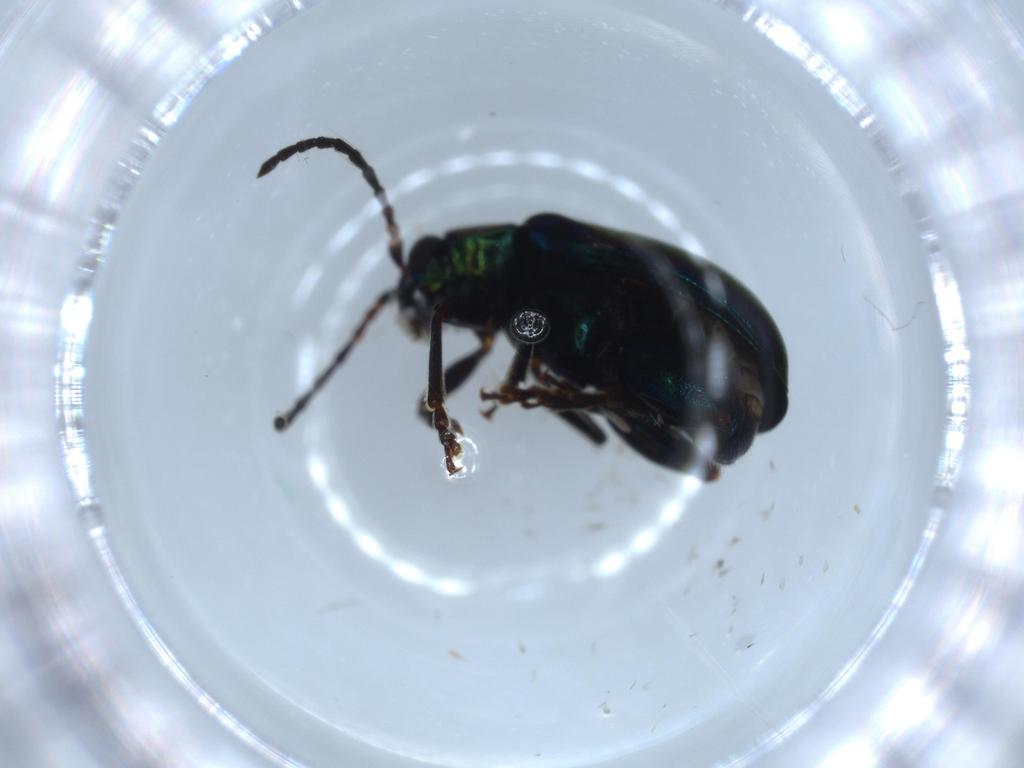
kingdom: Animalia
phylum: Arthropoda
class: Insecta
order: Coleoptera
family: Chrysomelidae
